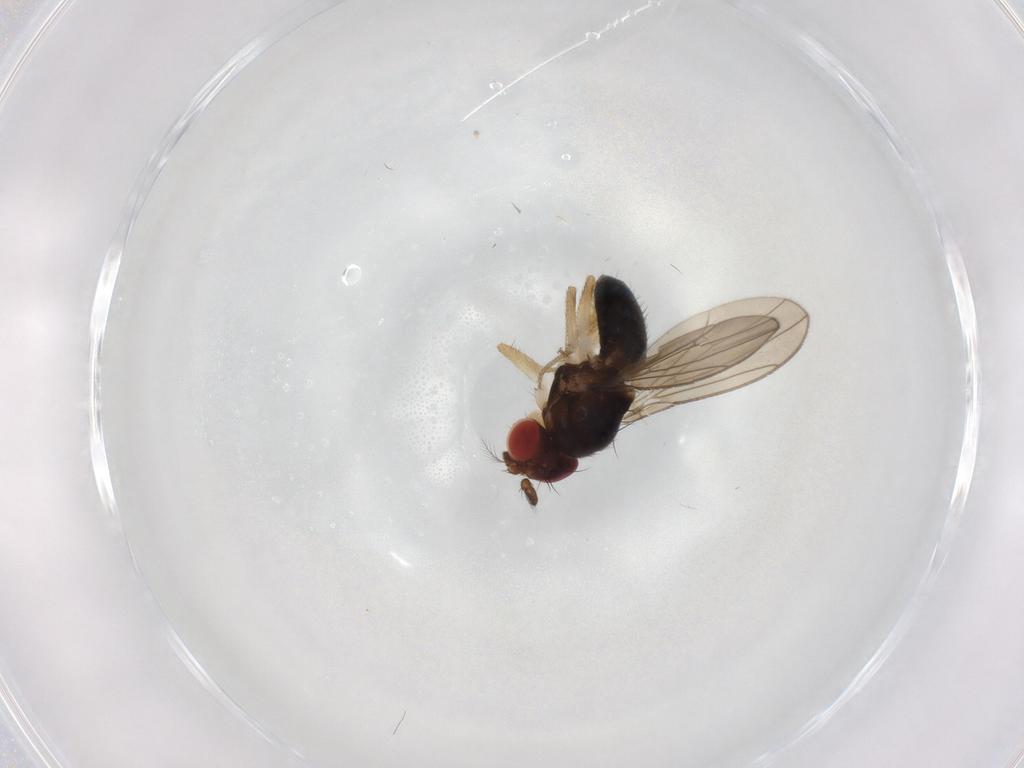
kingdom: Animalia
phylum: Arthropoda
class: Insecta
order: Diptera
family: Drosophilidae
